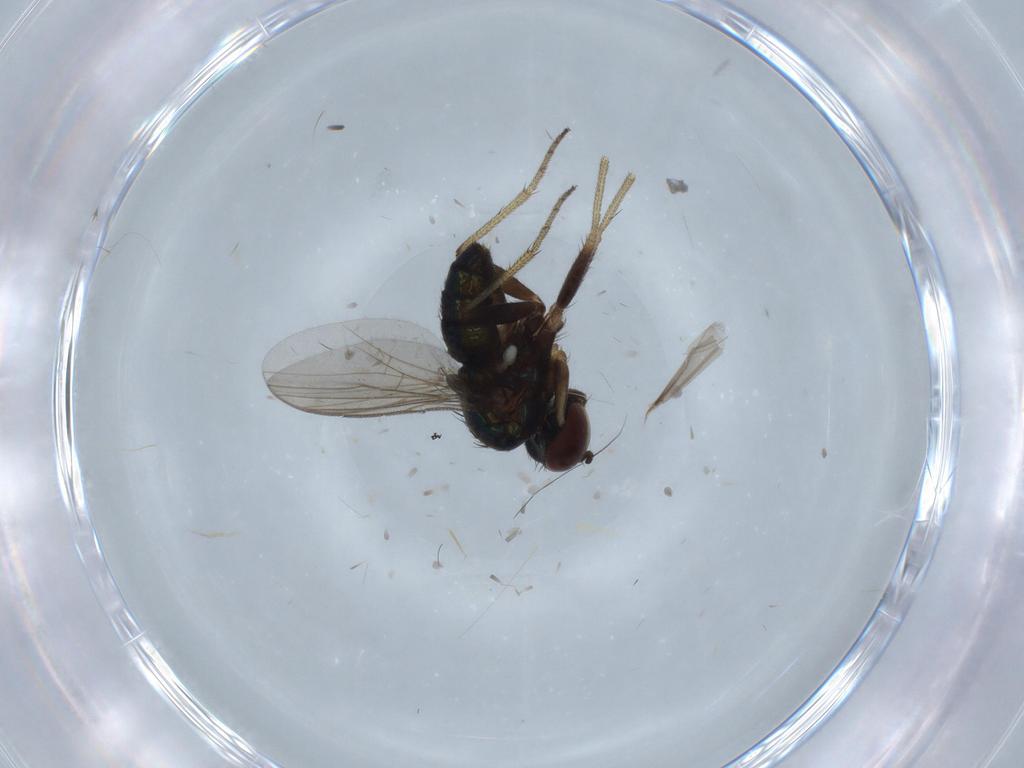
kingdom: Animalia
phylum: Arthropoda
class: Insecta
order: Diptera
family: Dolichopodidae
